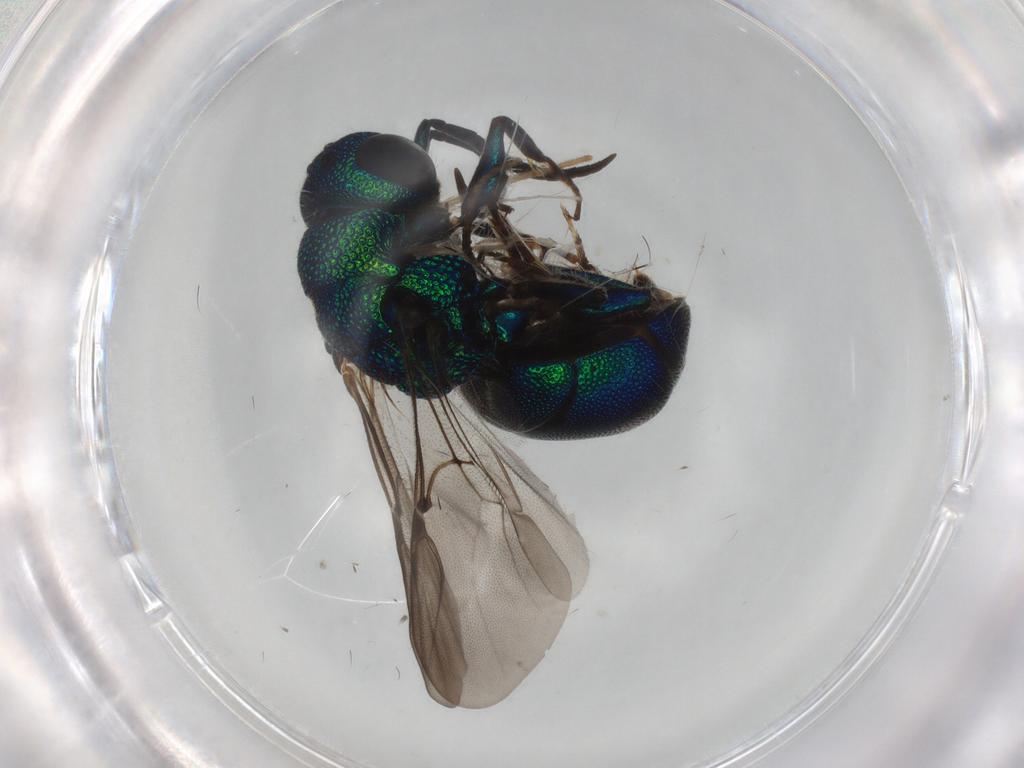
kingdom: Animalia
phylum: Arthropoda
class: Insecta
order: Hymenoptera
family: Chrysididae
